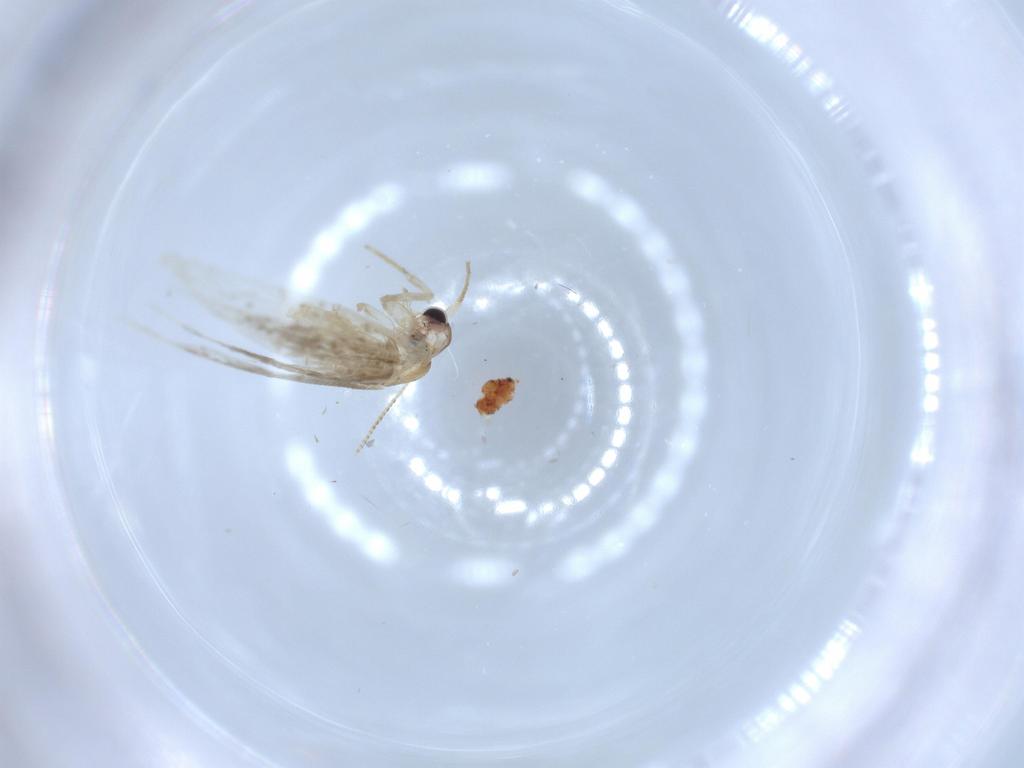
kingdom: Animalia
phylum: Arthropoda
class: Insecta
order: Lepidoptera
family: Tineidae
